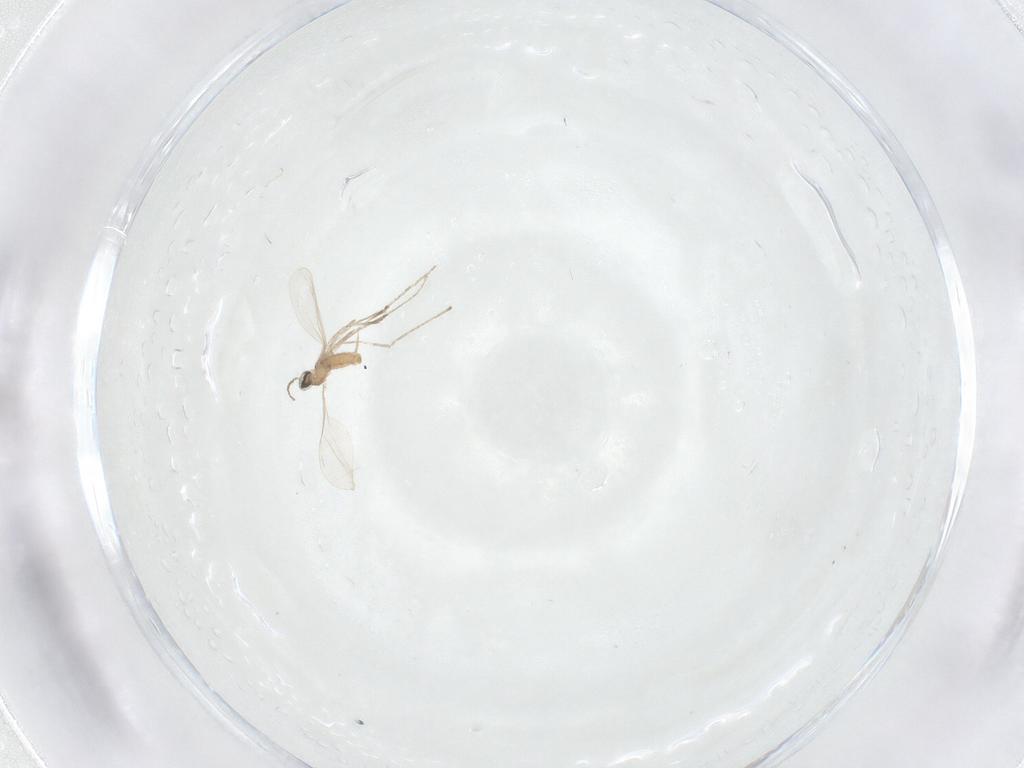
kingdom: Animalia
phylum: Arthropoda
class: Insecta
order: Diptera
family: Cecidomyiidae
